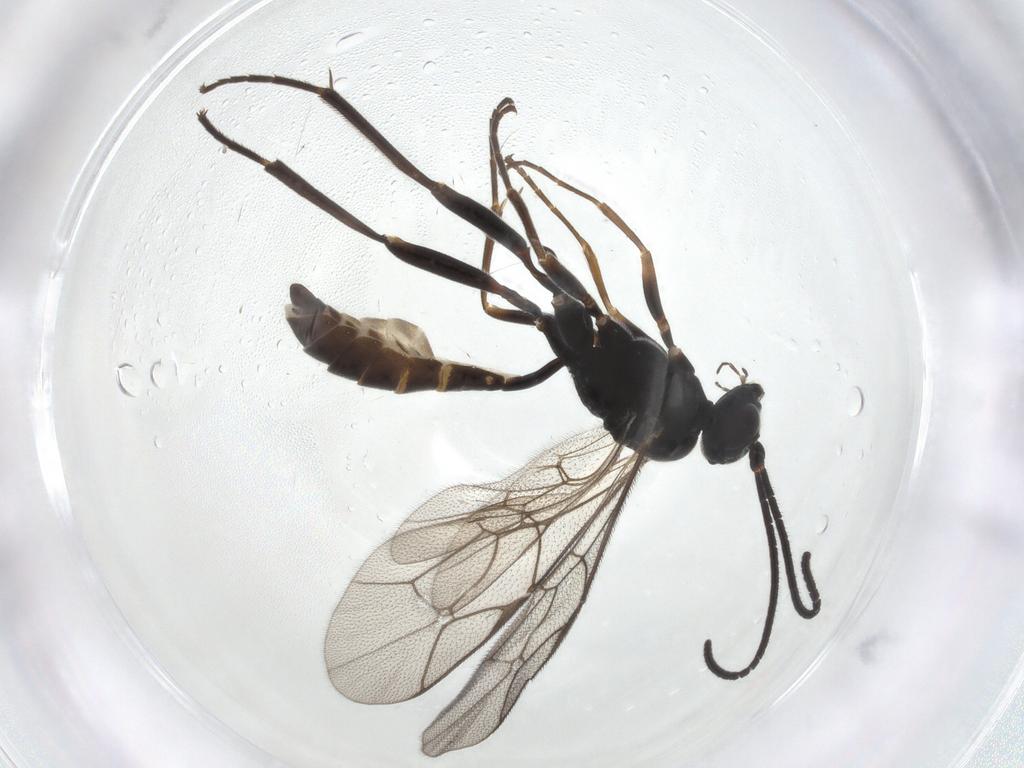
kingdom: Animalia
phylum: Arthropoda
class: Insecta
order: Hymenoptera
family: Ichneumonidae
